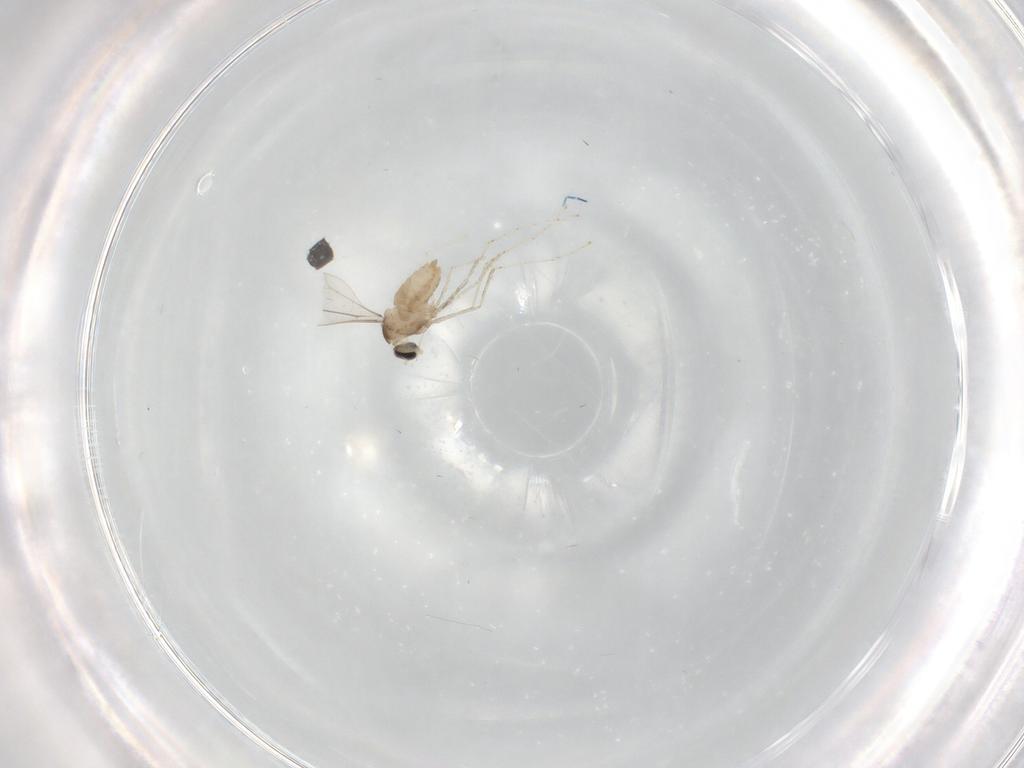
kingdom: Animalia
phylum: Arthropoda
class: Insecta
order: Diptera
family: Cecidomyiidae
